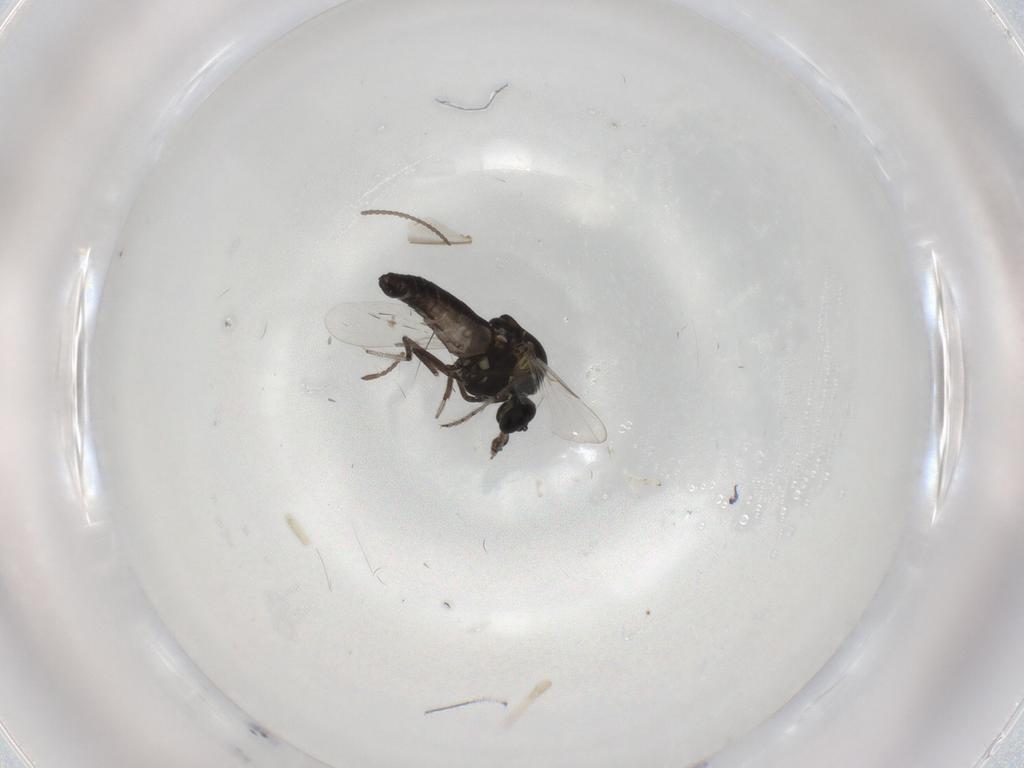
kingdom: Animalia
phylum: Arthropoda
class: Insecta
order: Diptera
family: Ceratopogonidae
